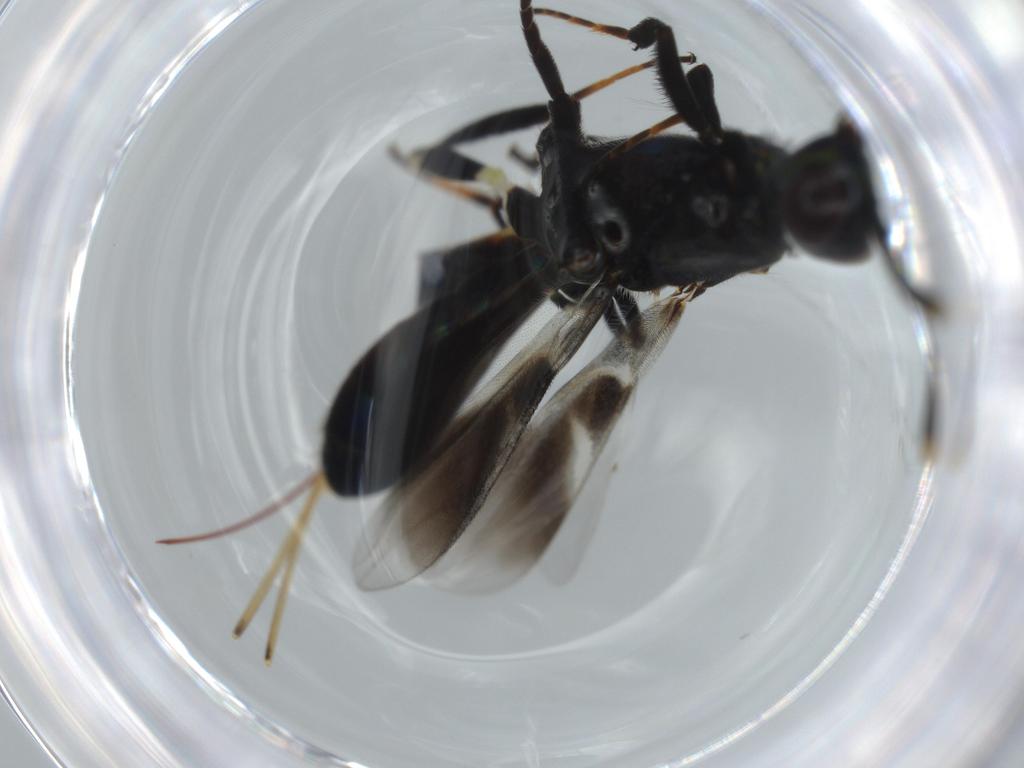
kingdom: Animalia
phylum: Arthropoda
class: Insecta
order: Hymenoptera
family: Eupelmidae
